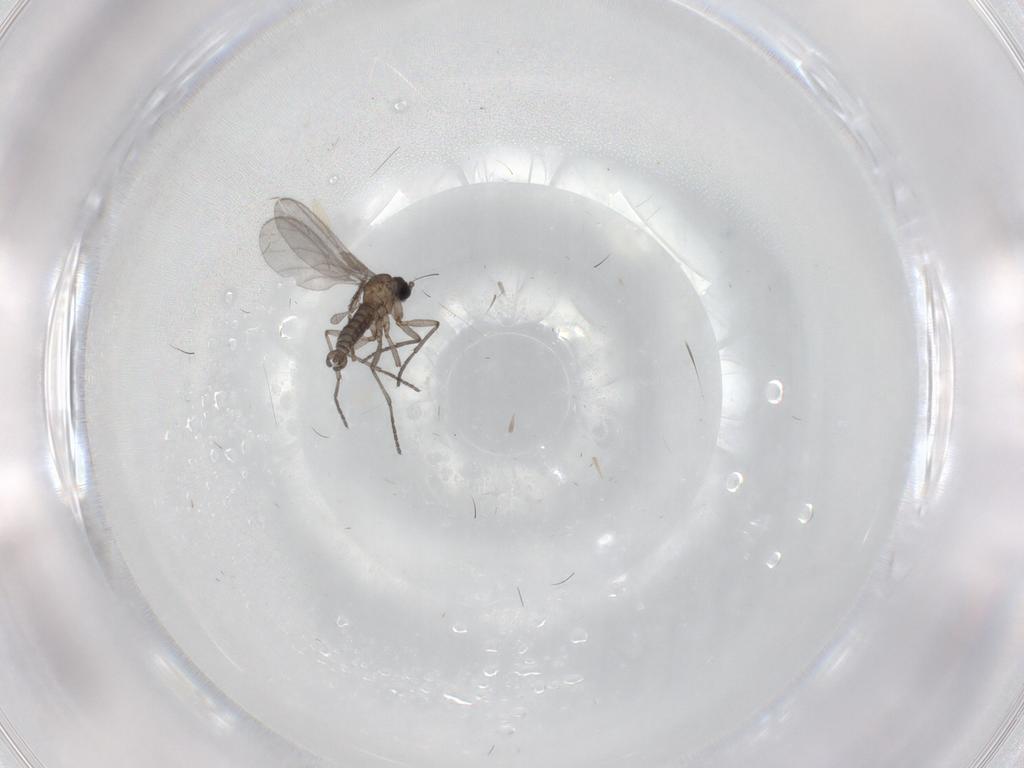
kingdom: Animalia
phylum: Arthropoda
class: Insecta
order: Diptera
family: Sciaridae
